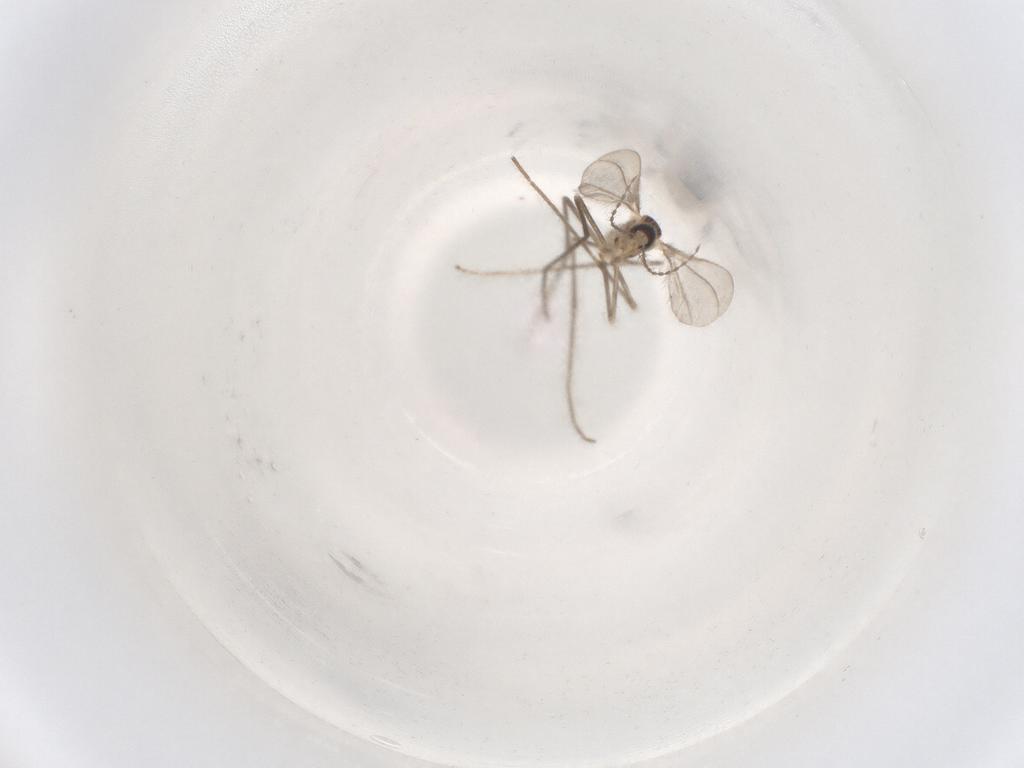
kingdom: Animalia
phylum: Arthropoda
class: Insecta
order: Diptera
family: Cecidomyiidae
